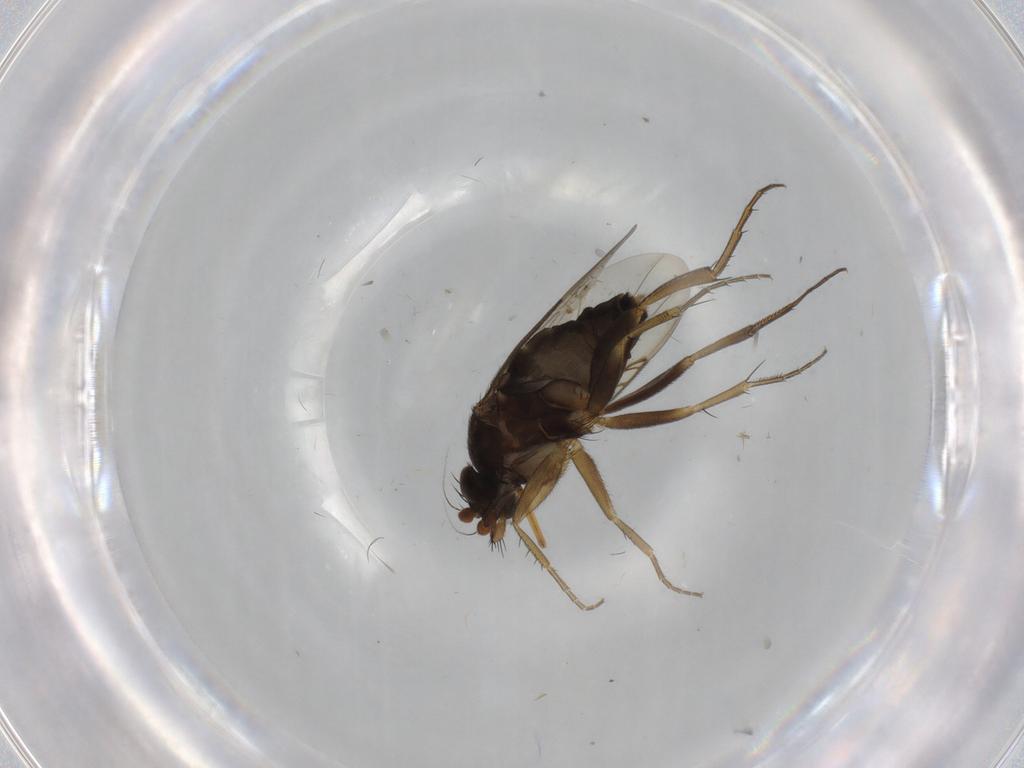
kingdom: Animalia
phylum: Arthropoda
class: Insecta
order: Diptera
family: Phoridae
